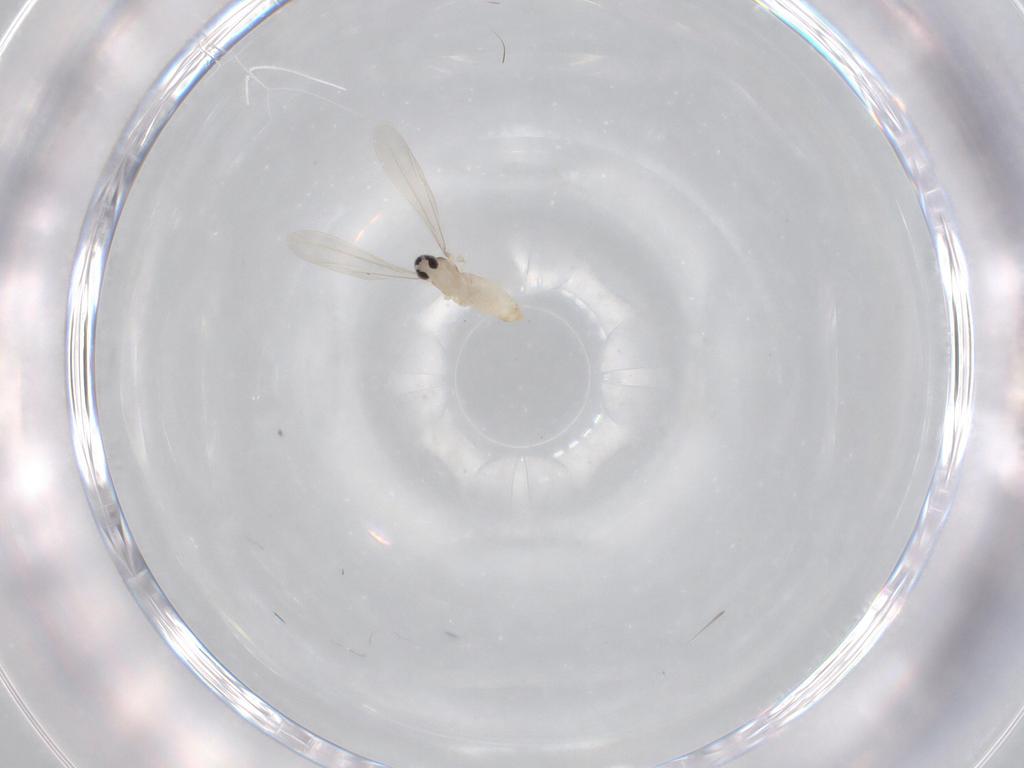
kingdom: Animalia
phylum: Arthropoda
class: Insecta
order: Diptera
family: Cecidomyiidae
